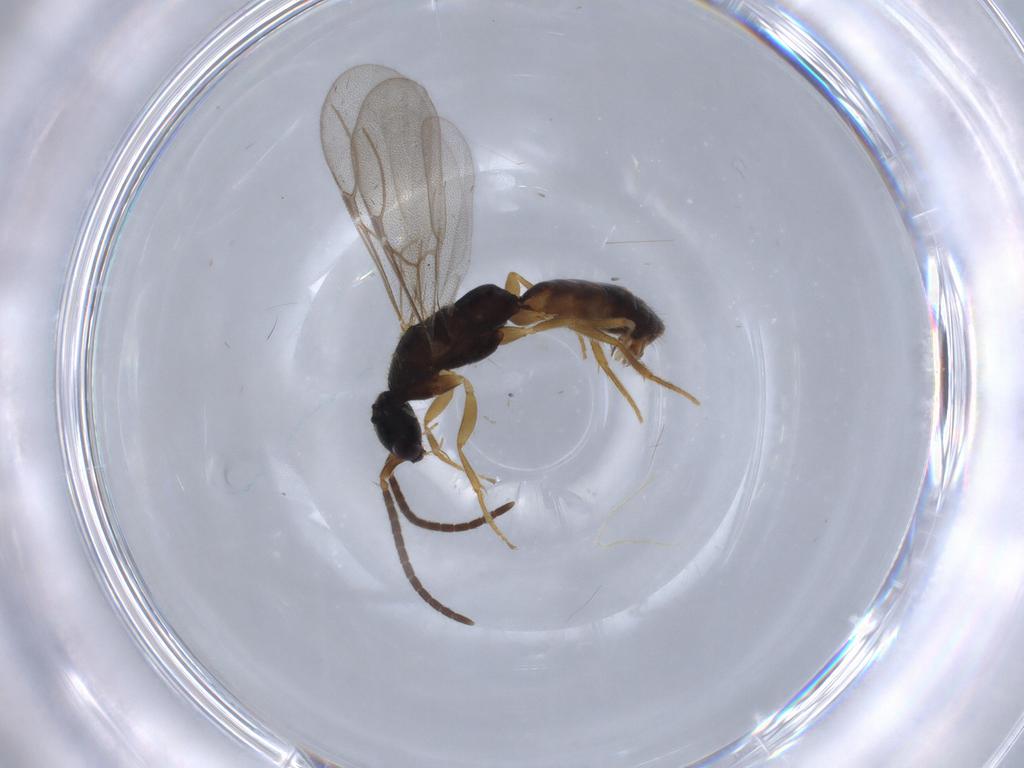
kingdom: Animalia
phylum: Arthropoda
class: Insecta
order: Hymenoptera
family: Bethylidae
